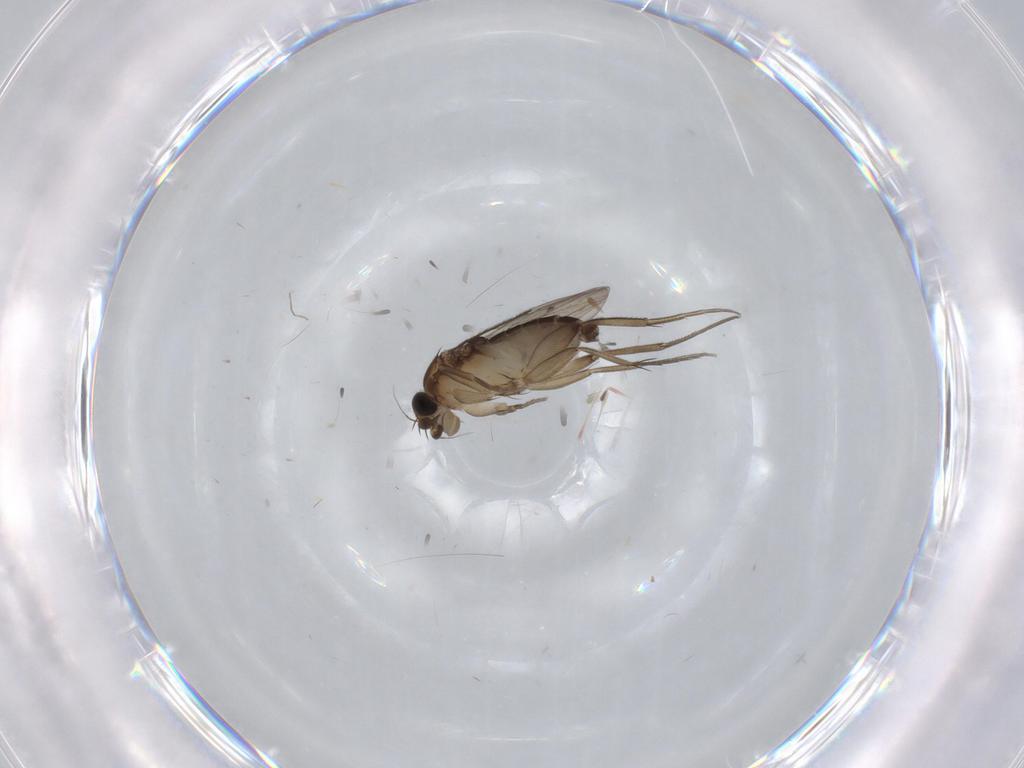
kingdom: Animalia
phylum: Arthropoda
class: Insecta
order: Diptera
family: Phoridae
